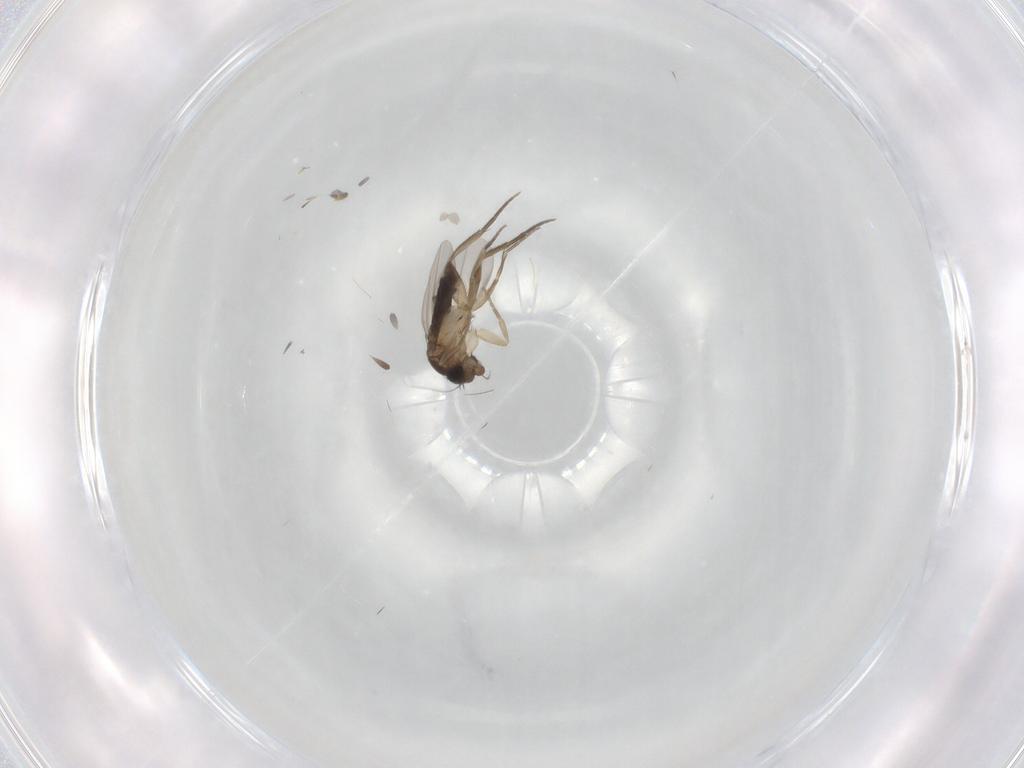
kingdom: Animalia
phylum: Arthropoda
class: Insecta
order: Diptera
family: Phoridae
